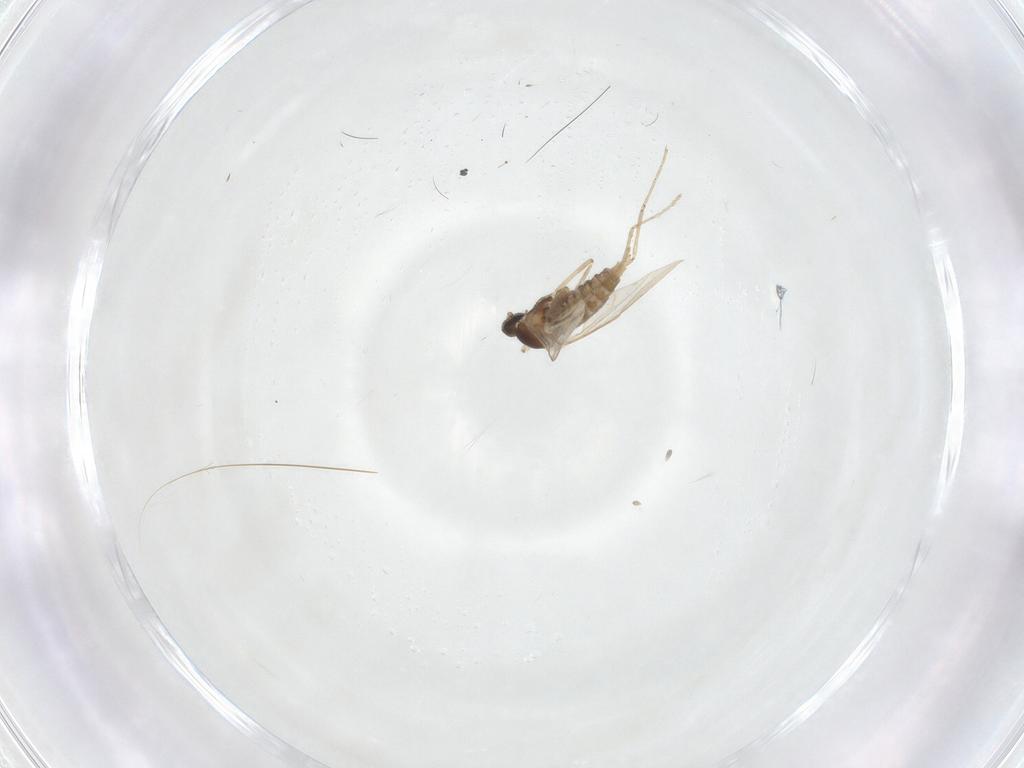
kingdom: Animalia
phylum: Arthropoda
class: Insecta
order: Diptera
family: Cecidomyiidae
